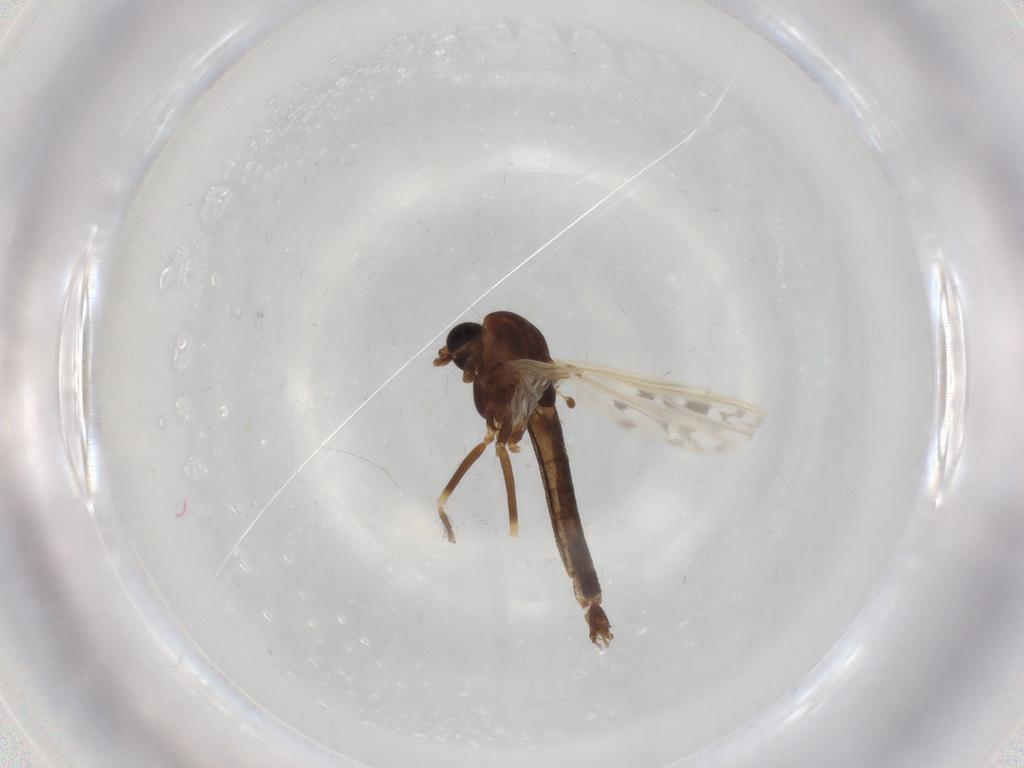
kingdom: Animalia
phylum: Arthropoda
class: Insecta
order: Diptera
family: Chironomidae
